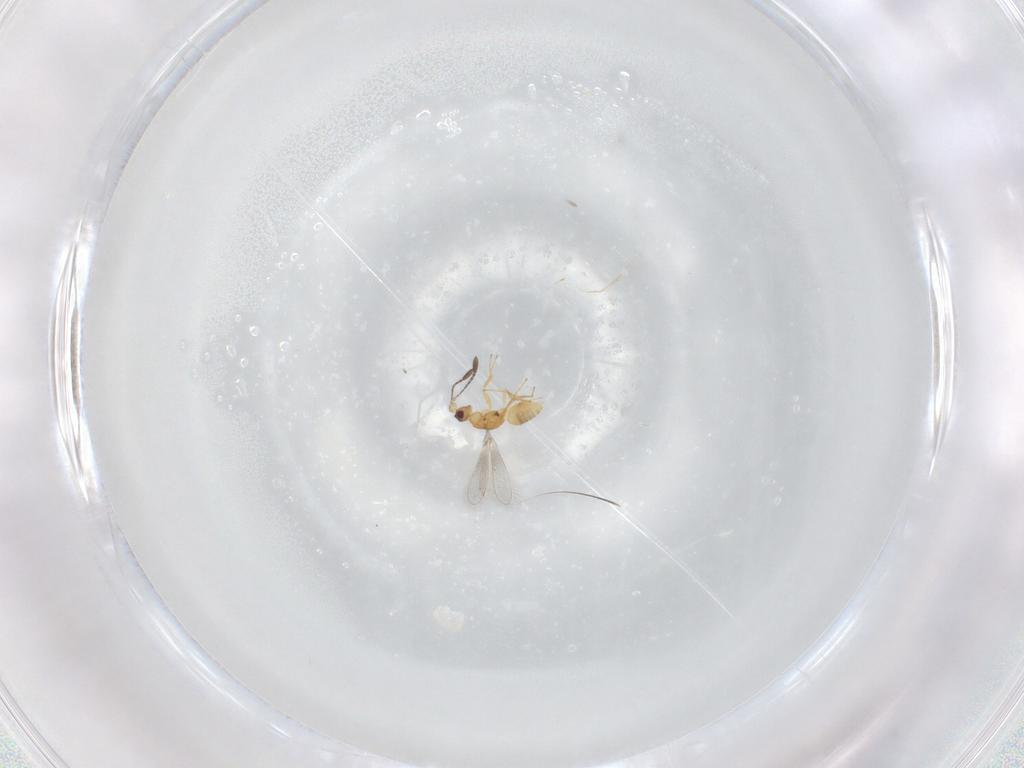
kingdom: Animalia
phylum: Arthropoda
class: Insecta
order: Hymenoptera
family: Mymaridae
